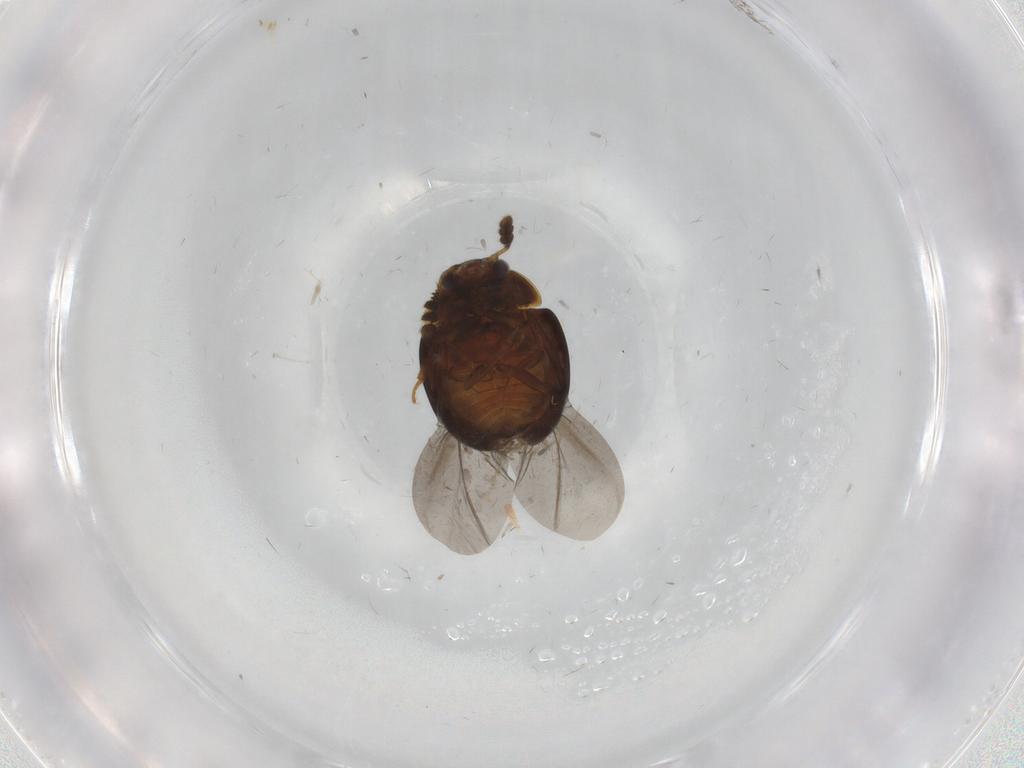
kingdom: Animalia
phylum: Arthropoda
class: Insecta
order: Coleoptera
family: Leiodidae
